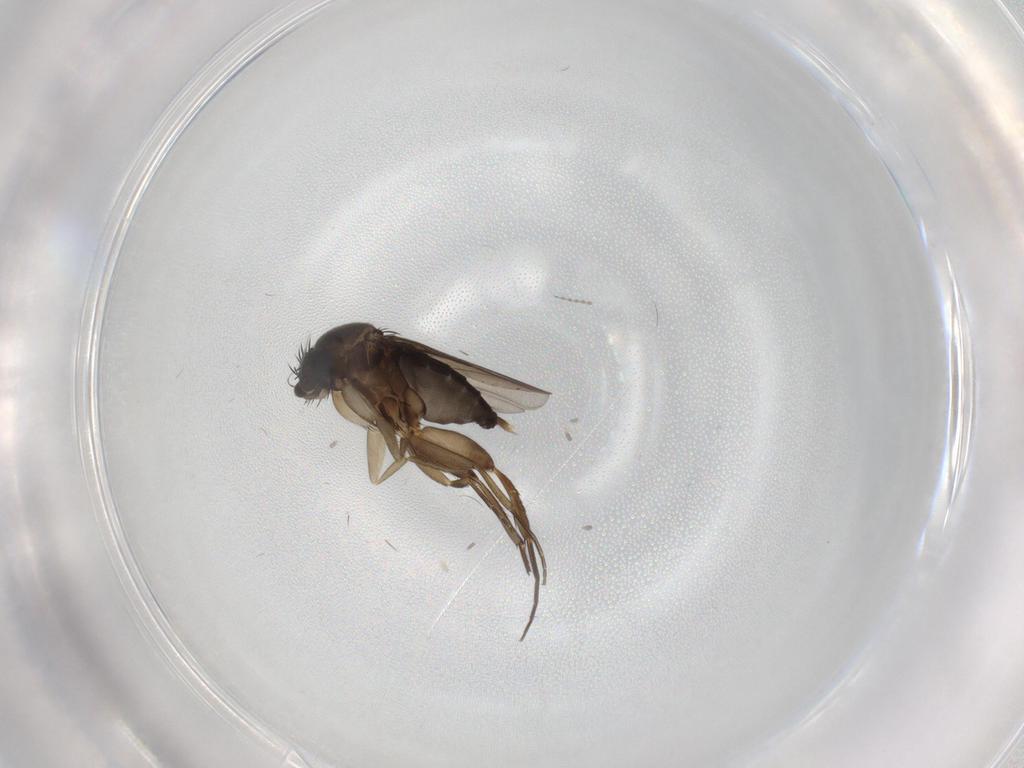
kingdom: Animalia
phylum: Arthropoda
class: Insecta
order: Diptera
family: Phoridae
